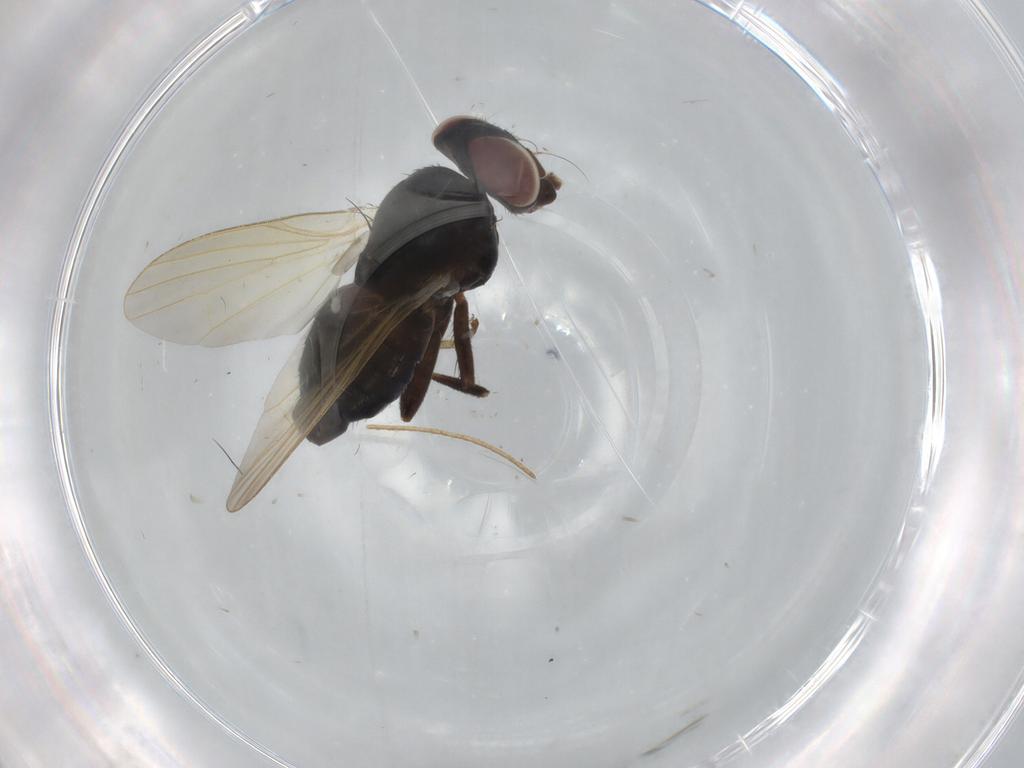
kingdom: Animalia
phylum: Arthropoda
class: Insecta
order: Diptera
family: Lonchaeidae
